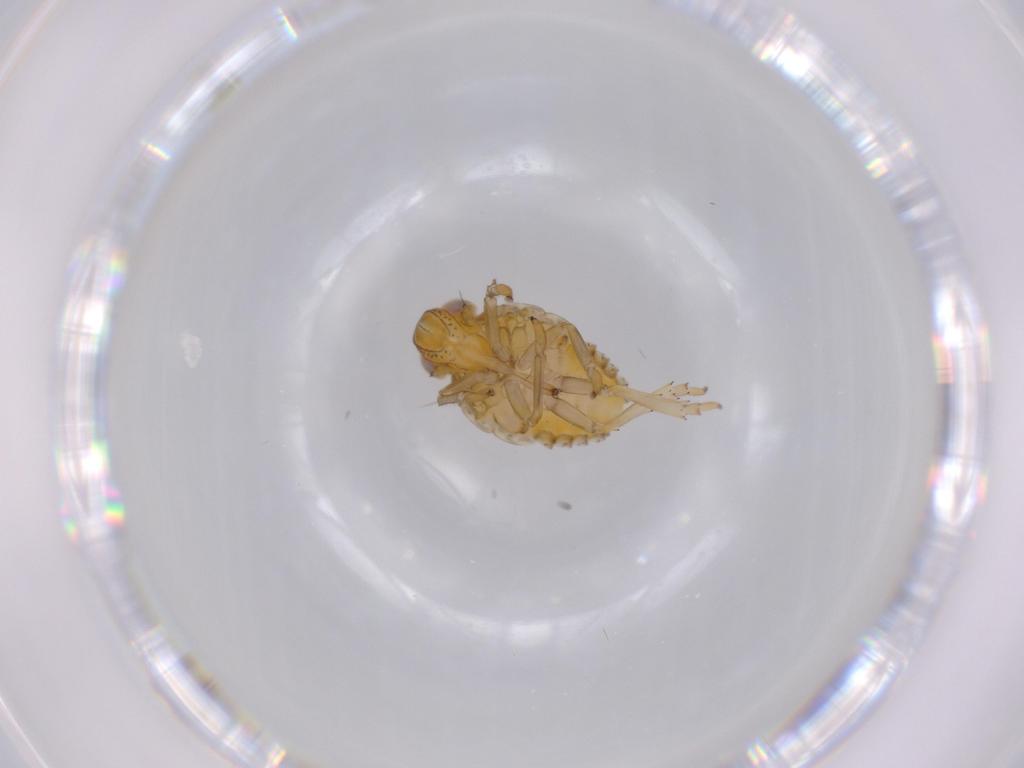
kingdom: Animalia
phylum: Arthropoda
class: Insecta
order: Hemiptera
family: Issidae
